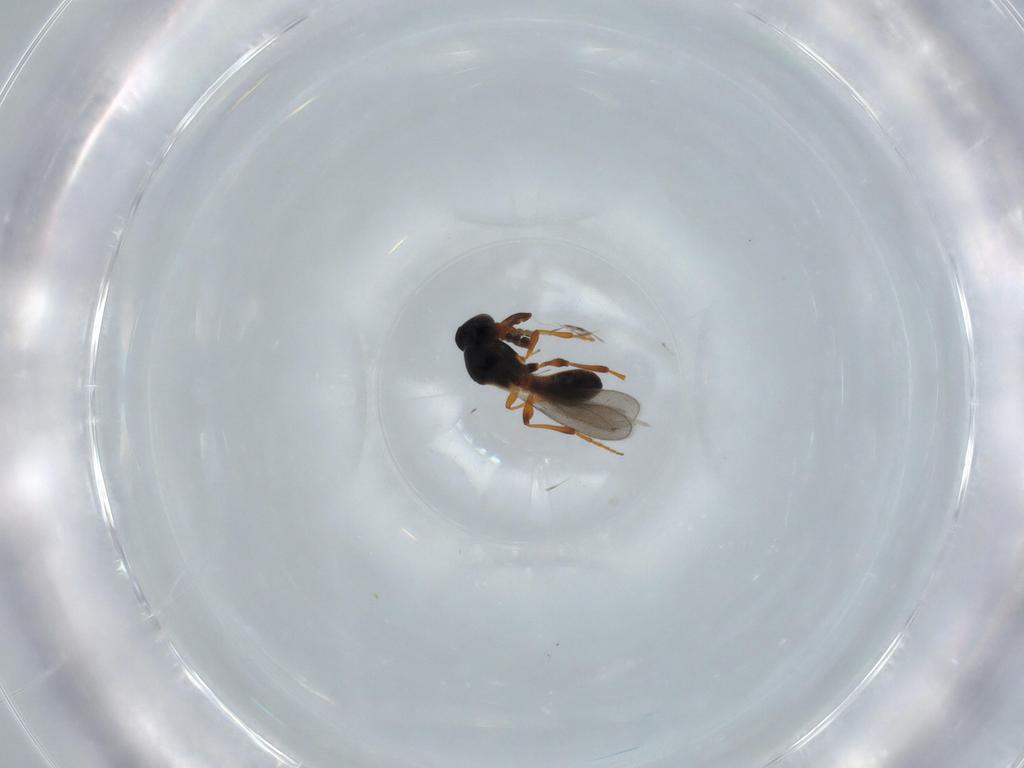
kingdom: Animalia
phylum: Arthropoda
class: Insecta
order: Hymenoptera
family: Platygastridae
